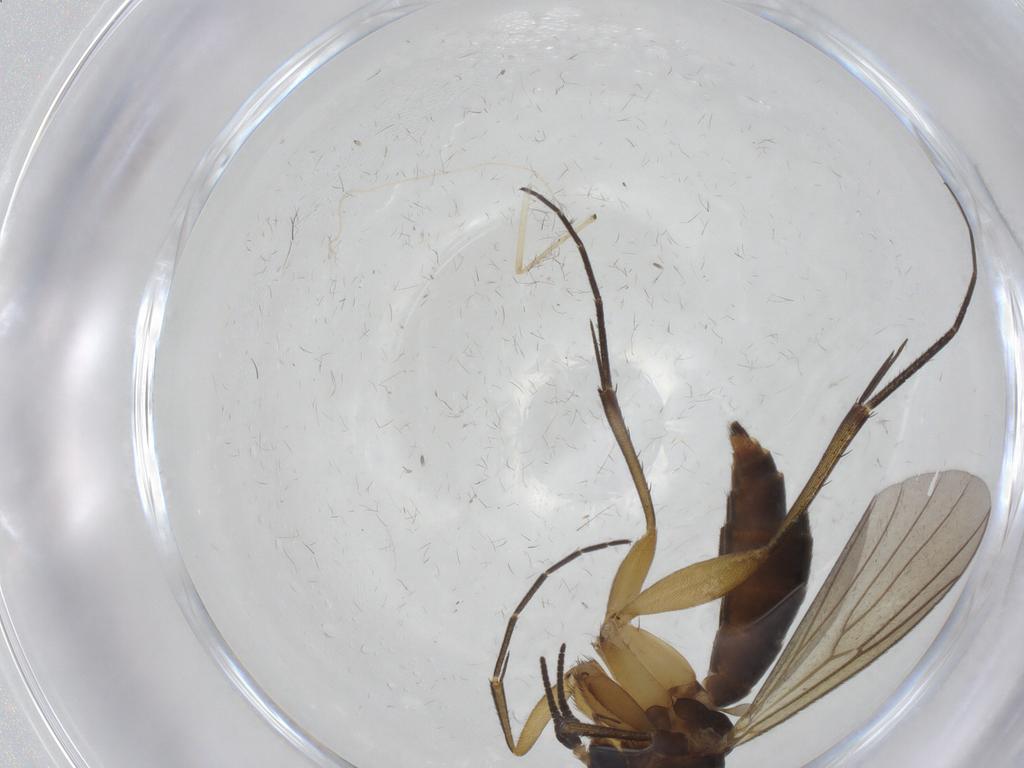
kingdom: Animalia
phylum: Arthropoda
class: Insecta
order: Diptera
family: Mycetophilidae
